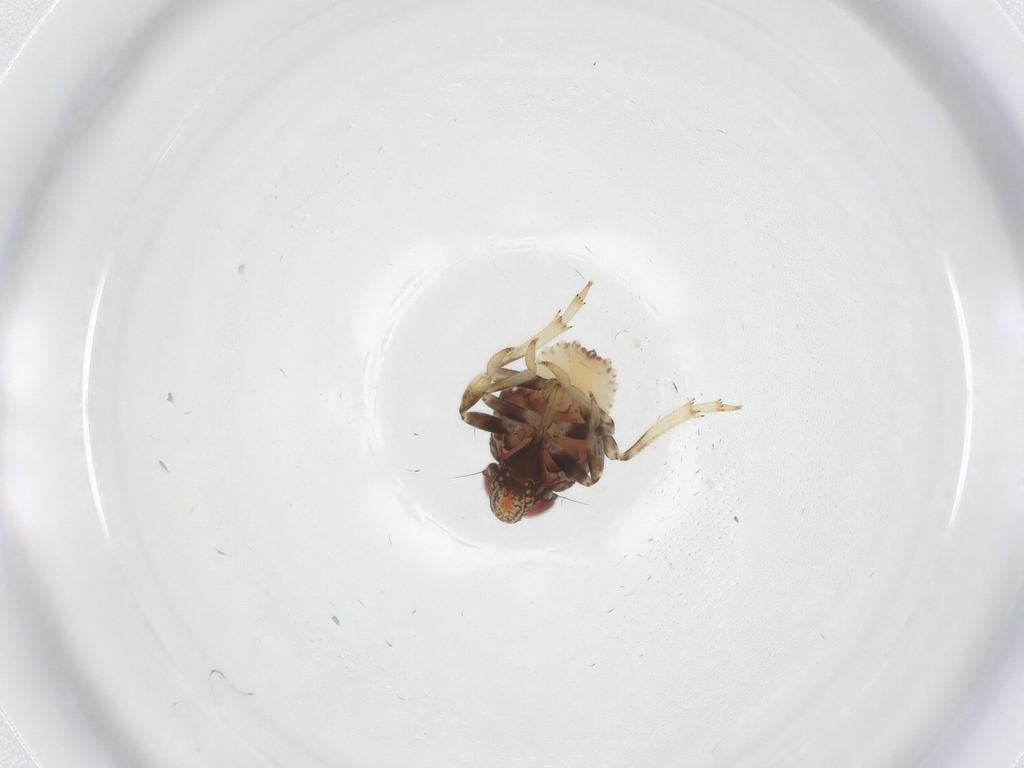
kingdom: Animalia
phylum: Arthropoda
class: Insecta
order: Hemiptera
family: Issidae
